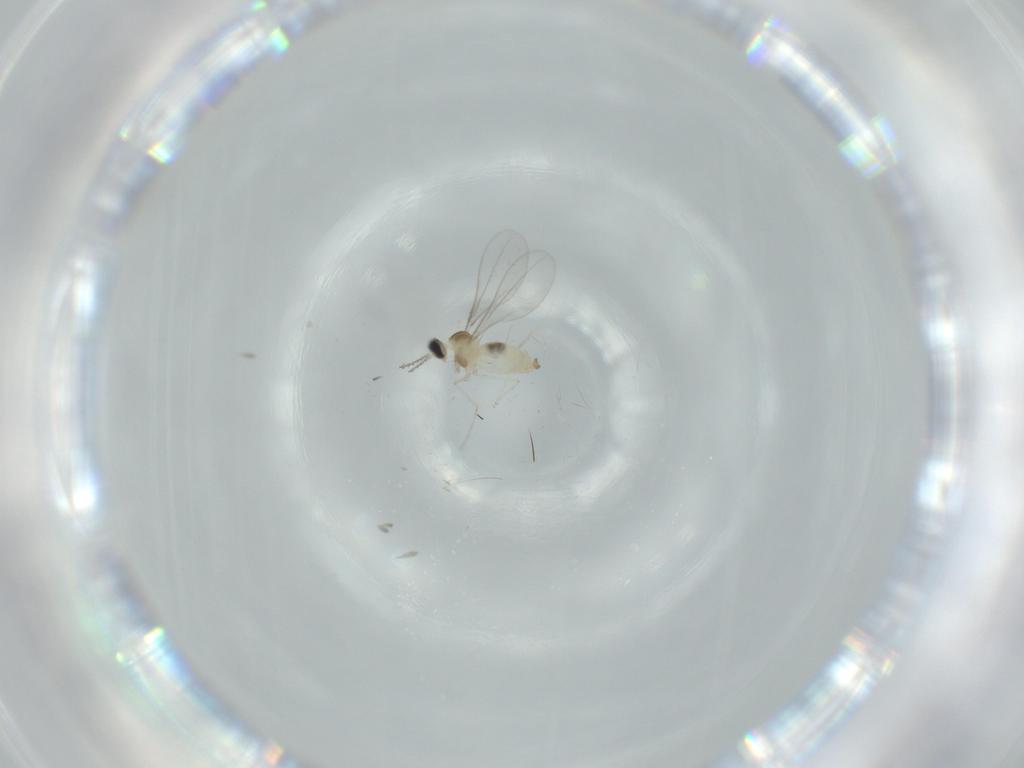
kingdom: Animalia
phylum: Arthropoda
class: Insecta
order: Diptera
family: Cecidomyiidae
